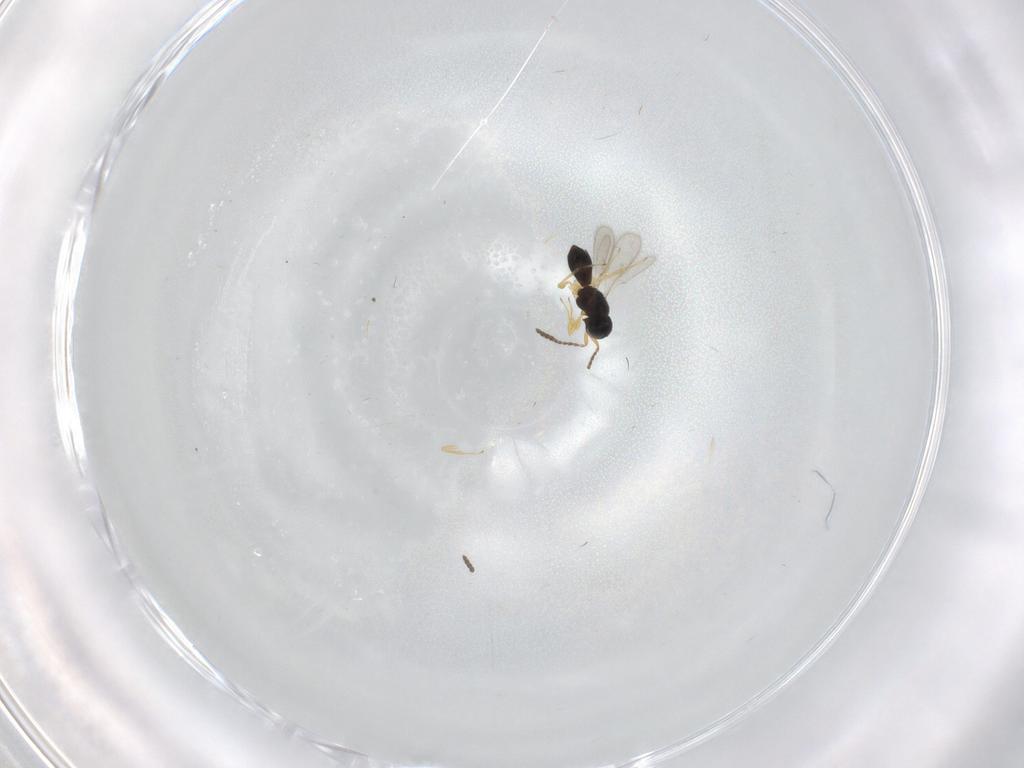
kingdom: Animalia
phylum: Arthropoda
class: Insecta
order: Hymenoptera
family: Scelionidae
